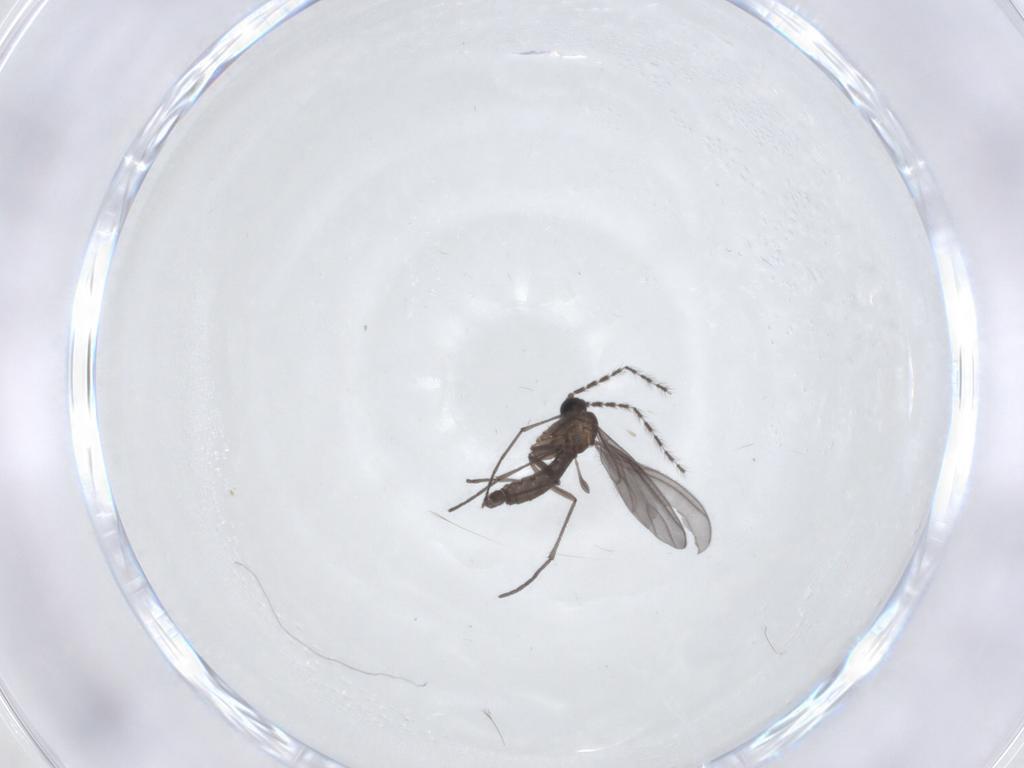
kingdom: Animalia
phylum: Arthropoda
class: Insecta
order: Diptera
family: Sciaridae
